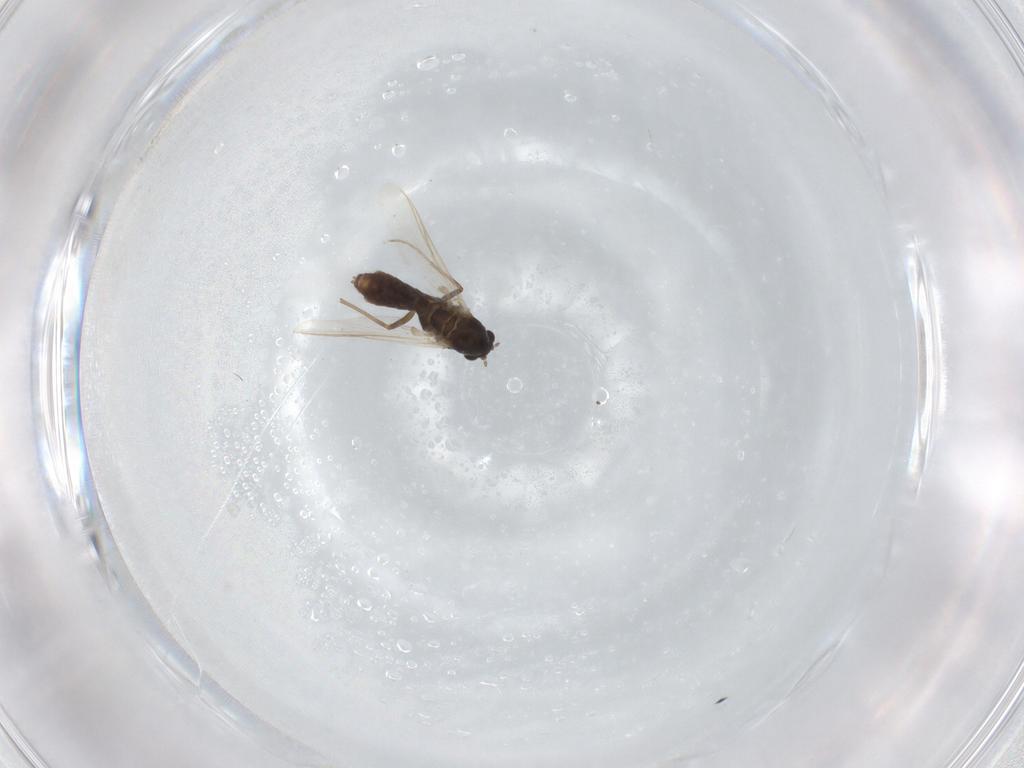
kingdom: Animalia
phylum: Arthropoda
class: Insecta
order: Diptera
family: Chironomidae
